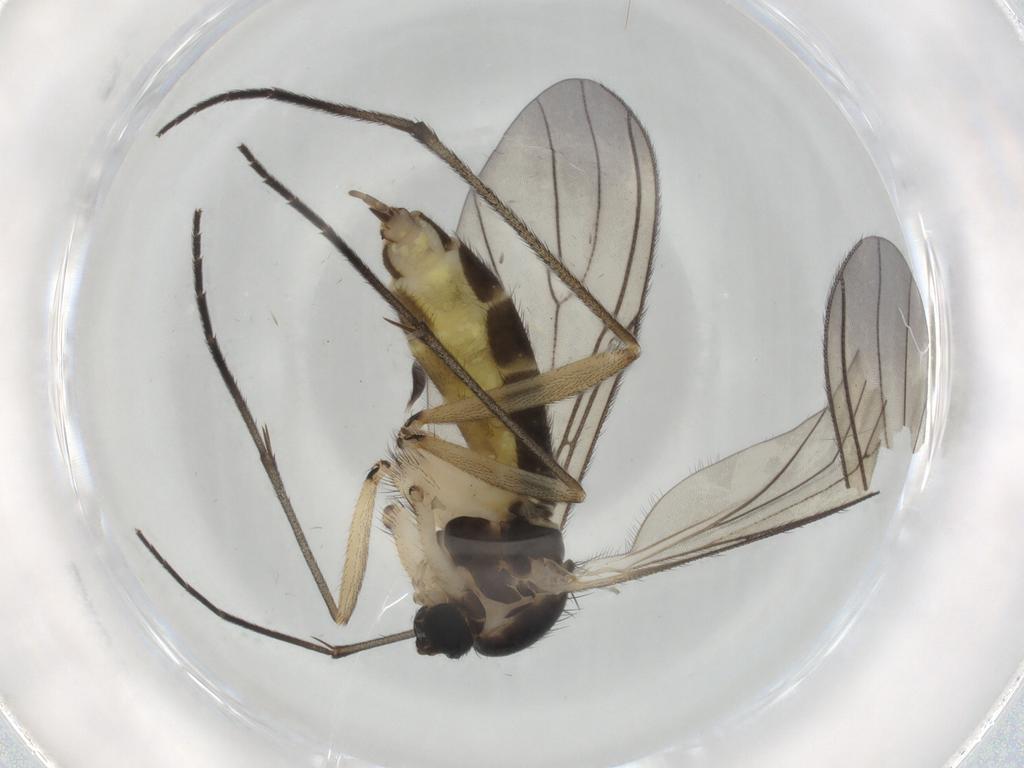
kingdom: Animalia
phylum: Arthropoda
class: Insecta
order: Diptera
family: Sciaridae
